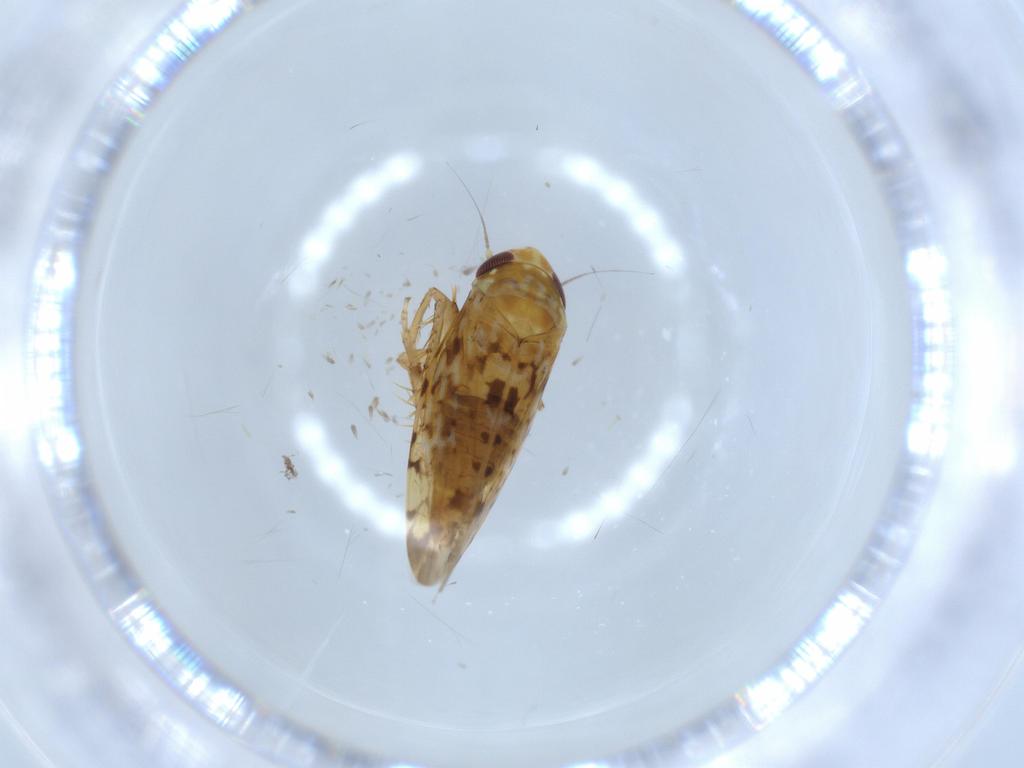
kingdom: Animalia
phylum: Arthropoda
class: Insecta
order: Hemiptera
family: Cicadellidae
